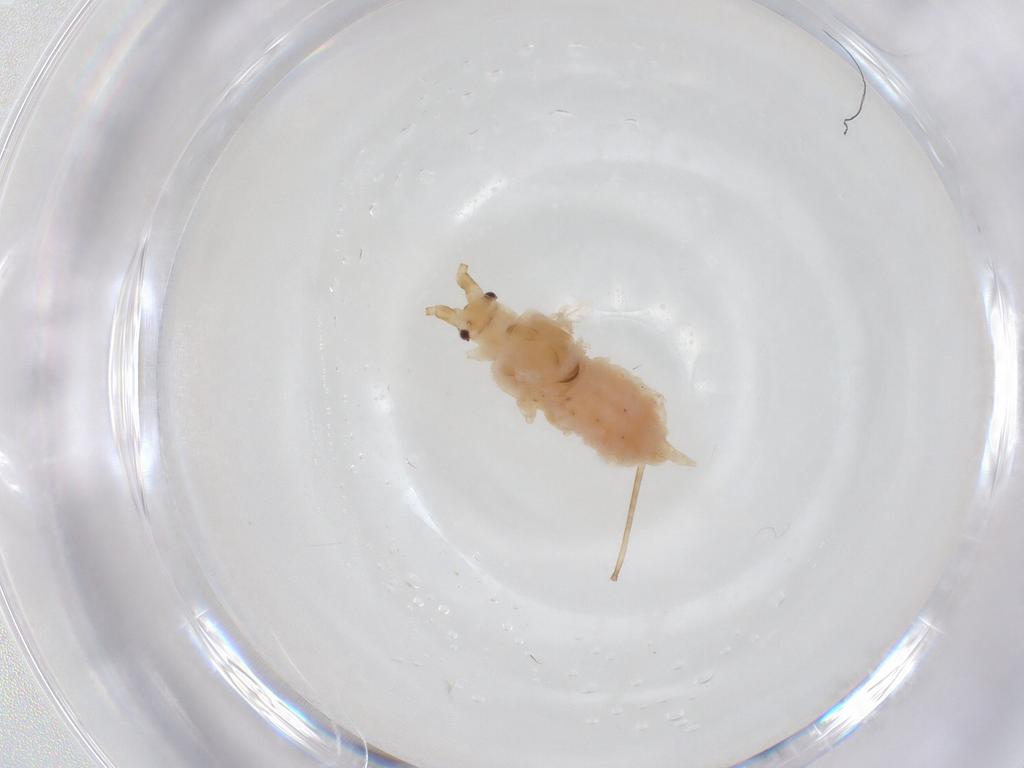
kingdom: Animalia
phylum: Arthropoda
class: Insecta
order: Hemiptera
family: Aphididae
